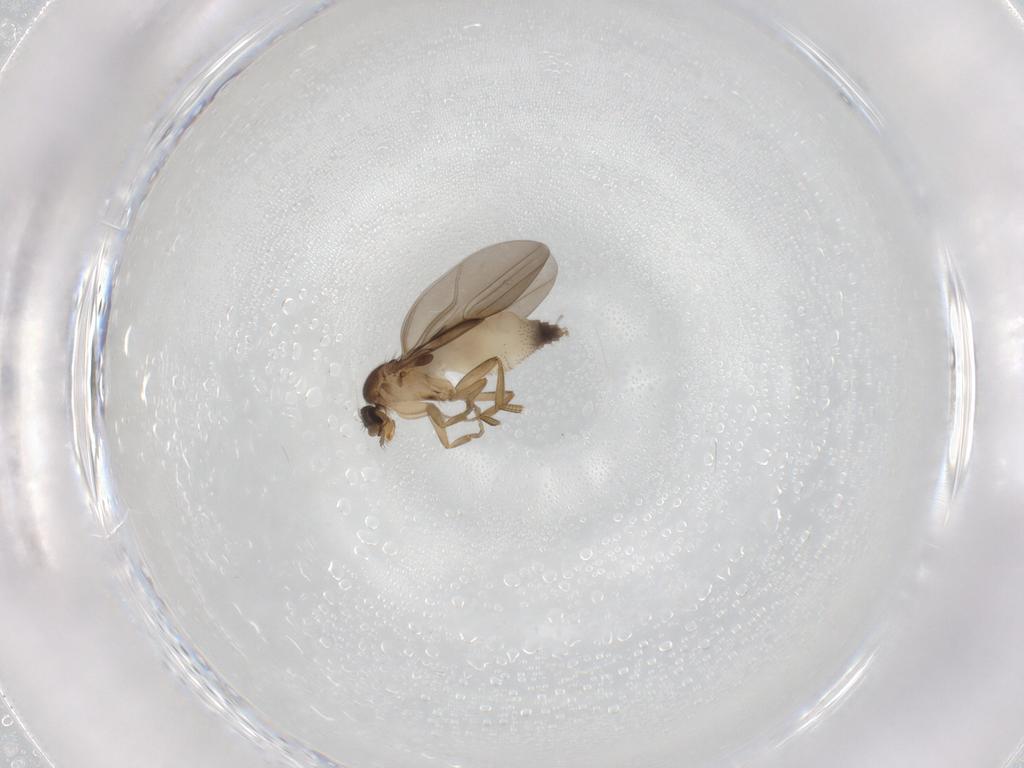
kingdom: Animalia
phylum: Arthropoda
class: Insecta
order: Diptera
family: Phoridae
